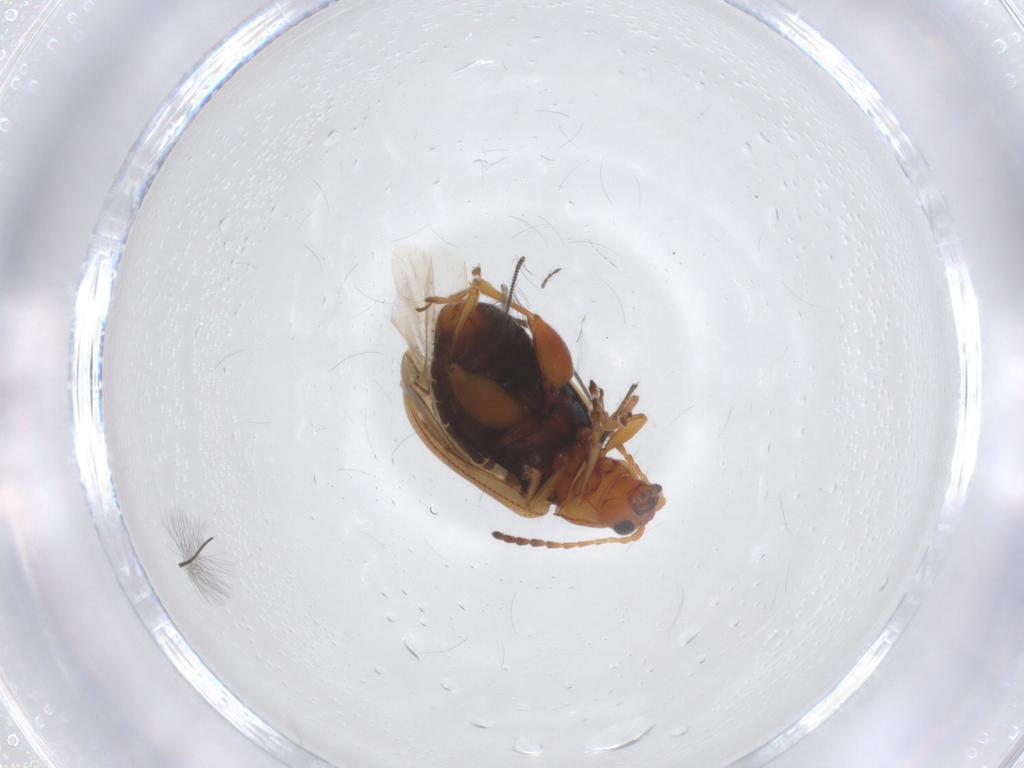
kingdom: Animalia
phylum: Arthropoda
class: Insecta
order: Coleoptera
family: Chrysomelidae
